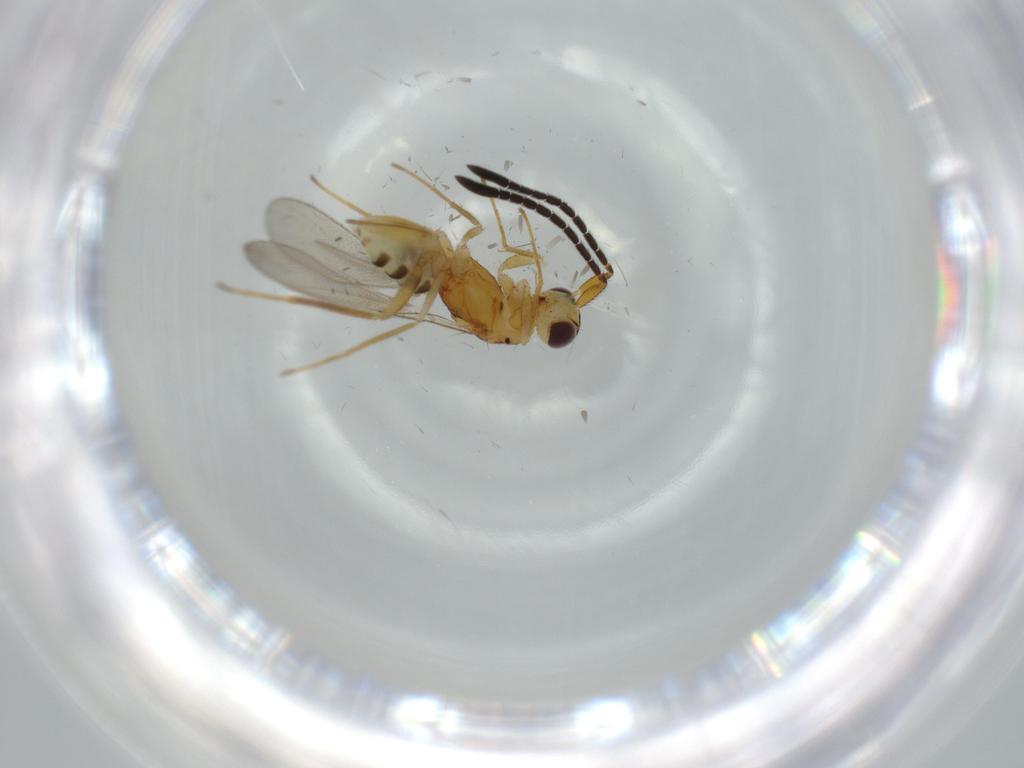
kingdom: Animalia
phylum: Arthropoda
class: Insecta
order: Hymenoptera
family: Mymaridae
